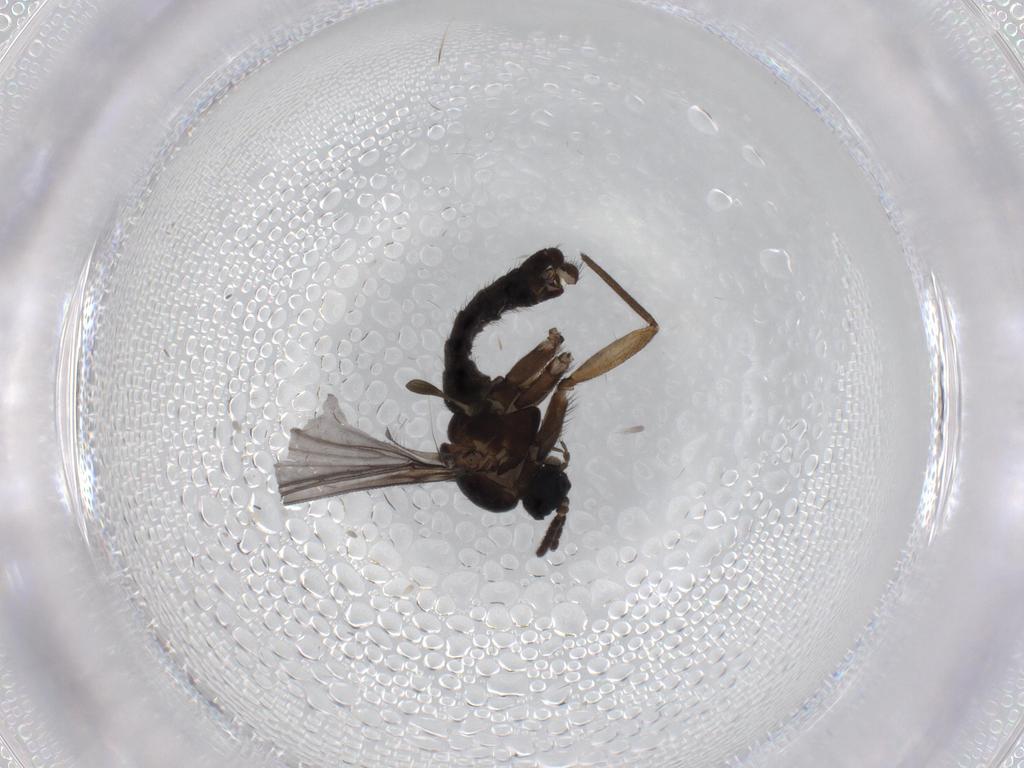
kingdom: Animalia
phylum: Arthropoda
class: Insecta
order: Diptera
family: Sciaridae
